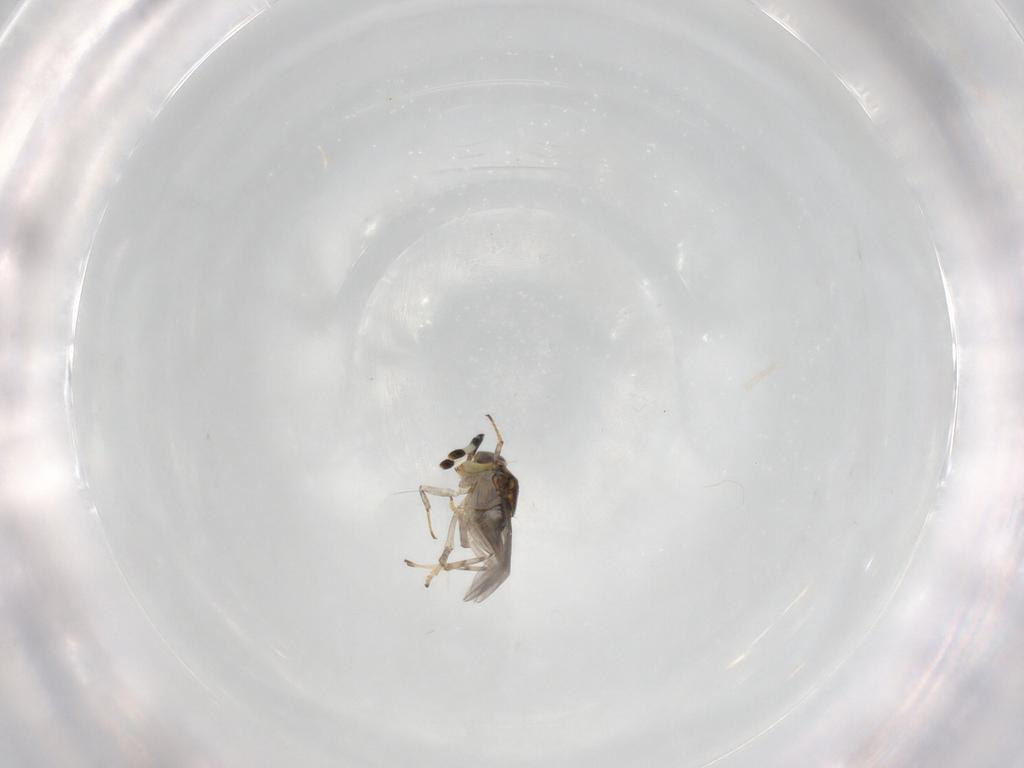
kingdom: Animalia
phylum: Arthropoda
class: Insecta
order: Hymenoptera
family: Encyrtidae
